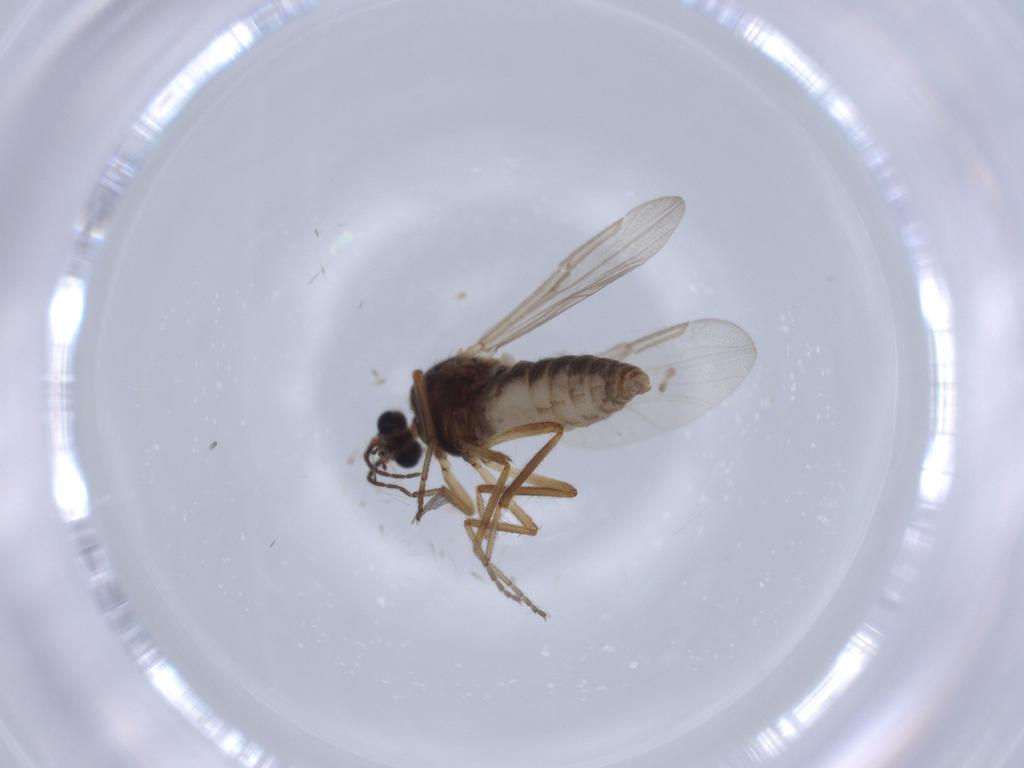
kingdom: Animalia
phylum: Arthropoda
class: Insecta
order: Diptera
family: Ceratopogonidae
